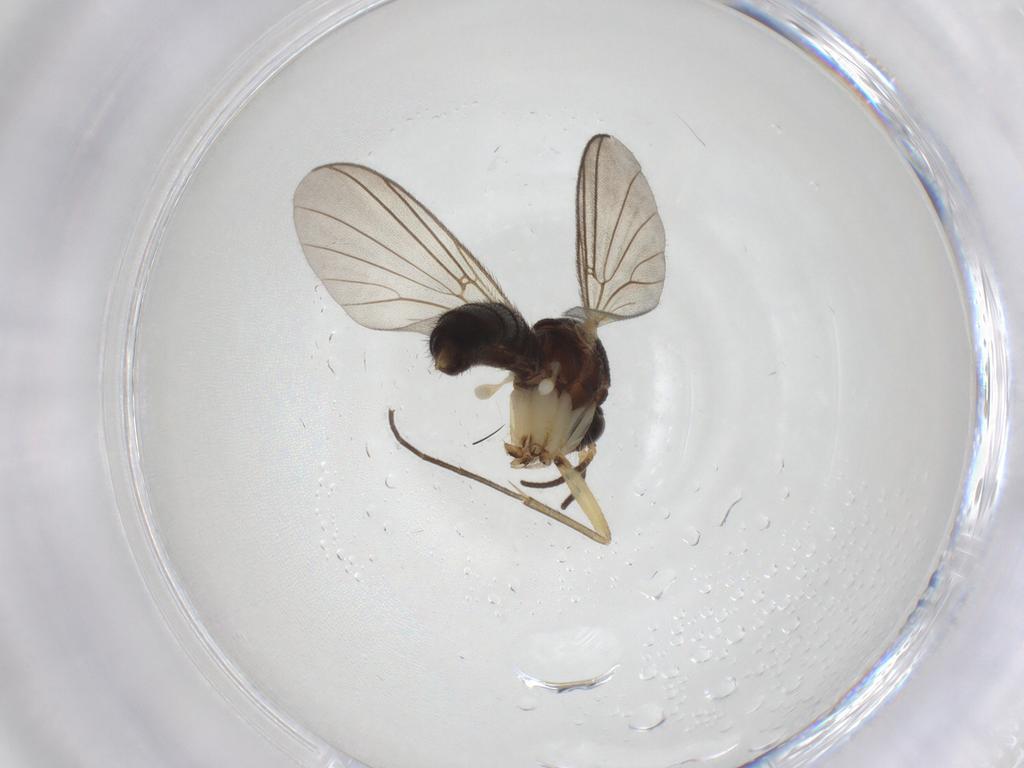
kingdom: Animalia
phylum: Arthropoda
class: Insecta
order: Diptera
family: Sciaridae
